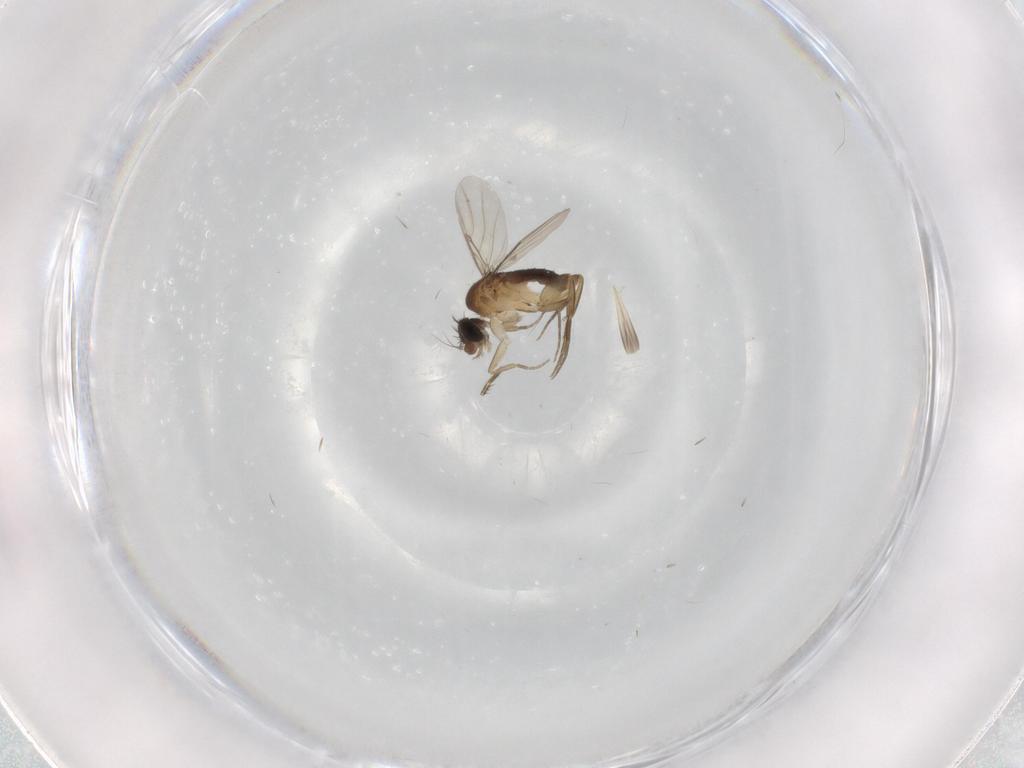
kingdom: Animalia
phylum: Arthropoda
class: Insecta
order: Diptera
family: Phoridae
